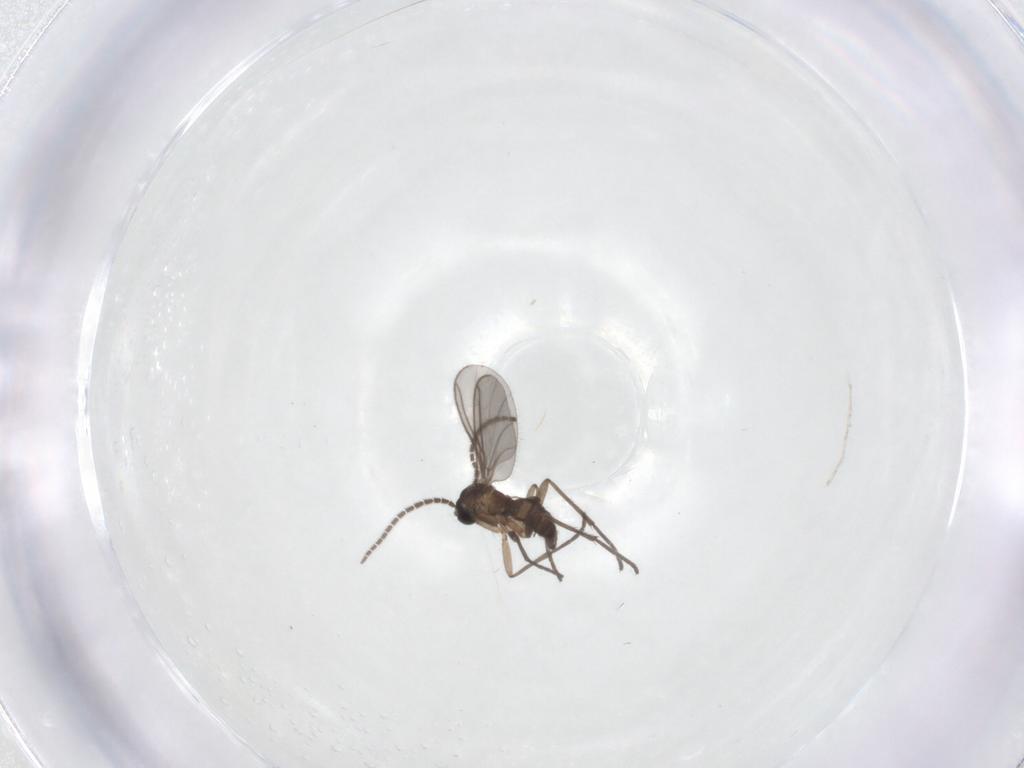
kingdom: Animalia
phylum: Arthropoda
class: Insecta
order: Diptera
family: Sciaridae
